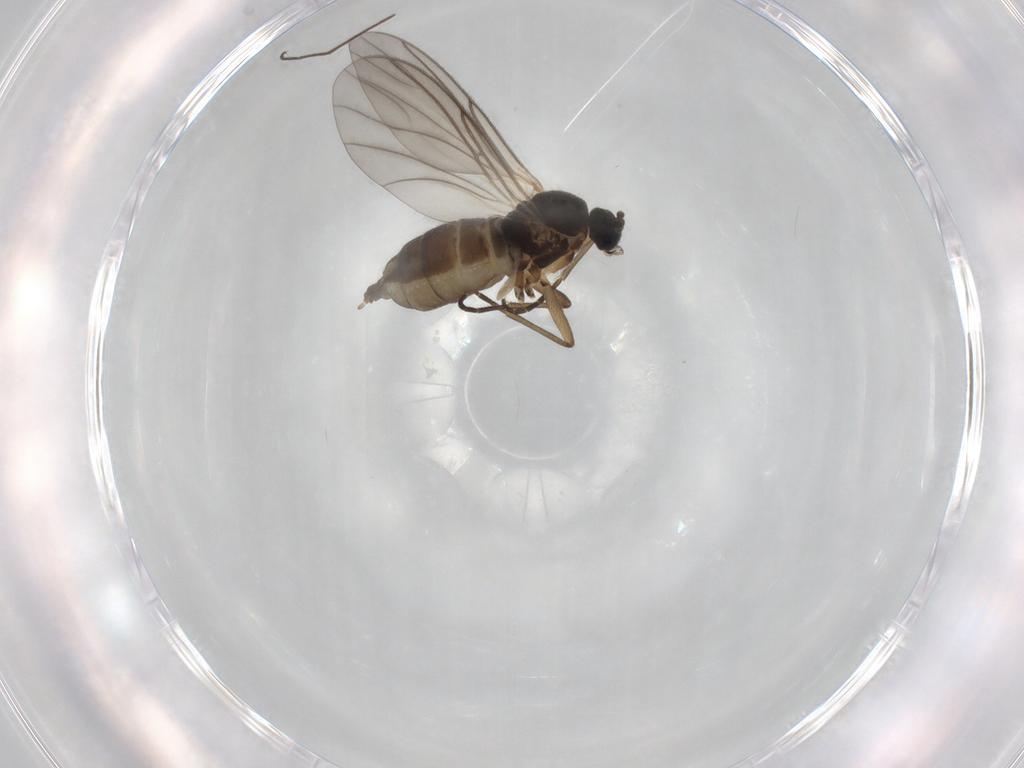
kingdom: Animalia
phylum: Arthropoda
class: Insecta
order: Diptera
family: Chironomidae
